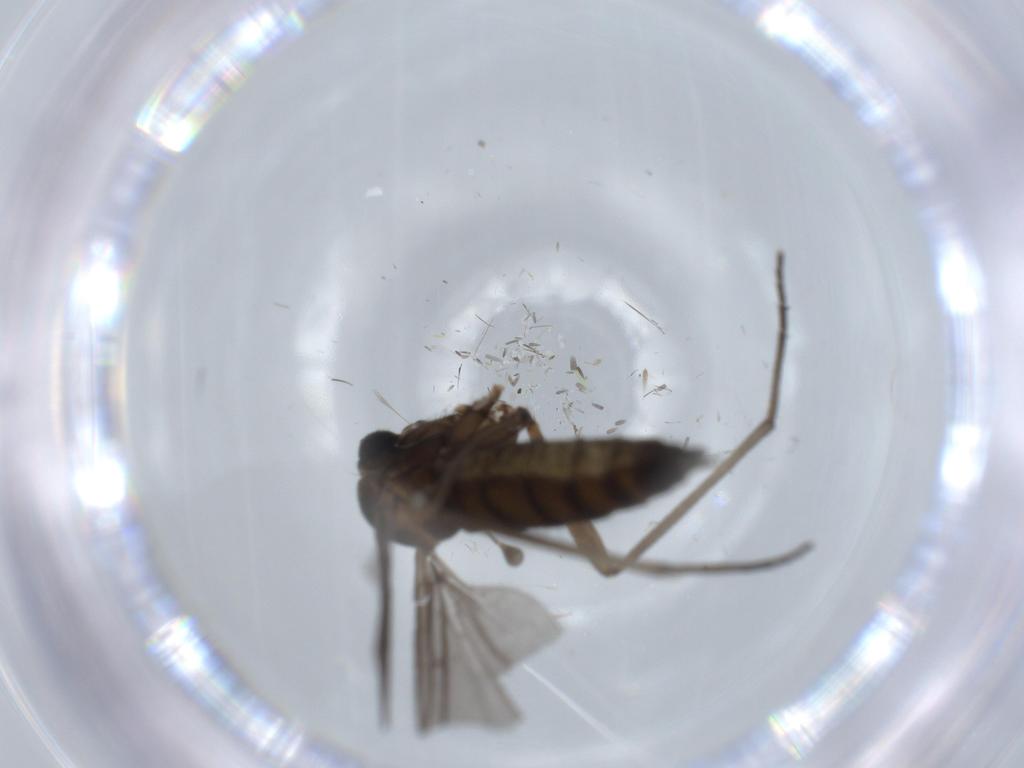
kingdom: Animalia
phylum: Arthropoda
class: Insecta
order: Diptera
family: Sciaridae
